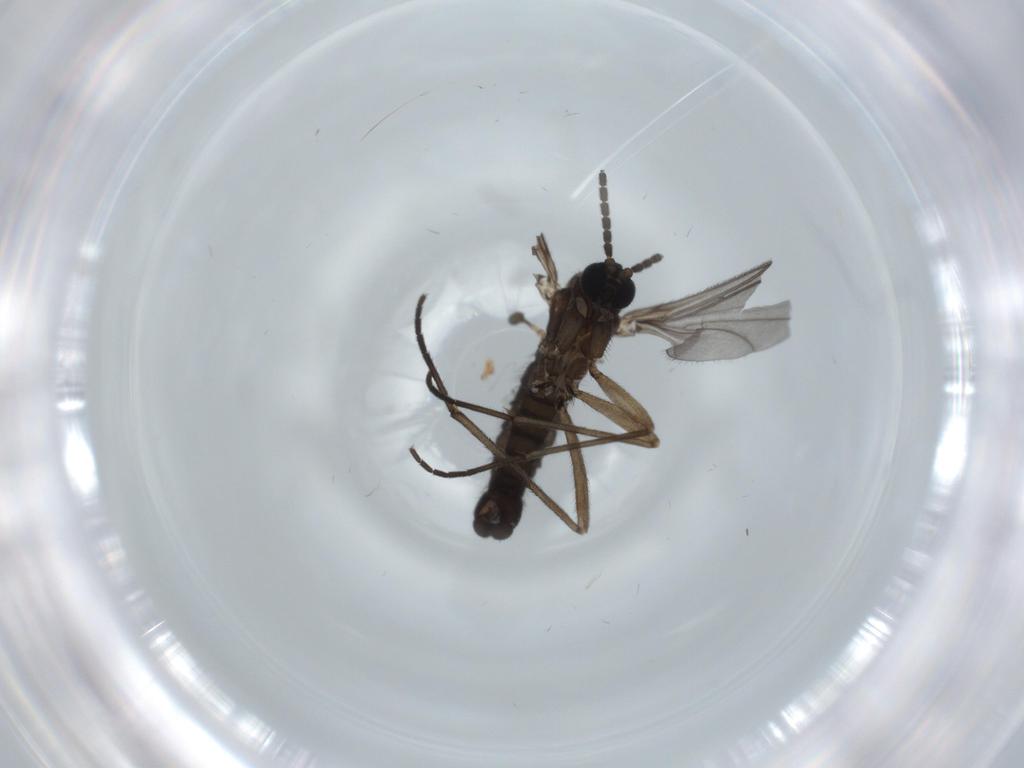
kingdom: Animalia
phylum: Arthropoda
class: Insecta
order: Diptera
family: Sciaridae
